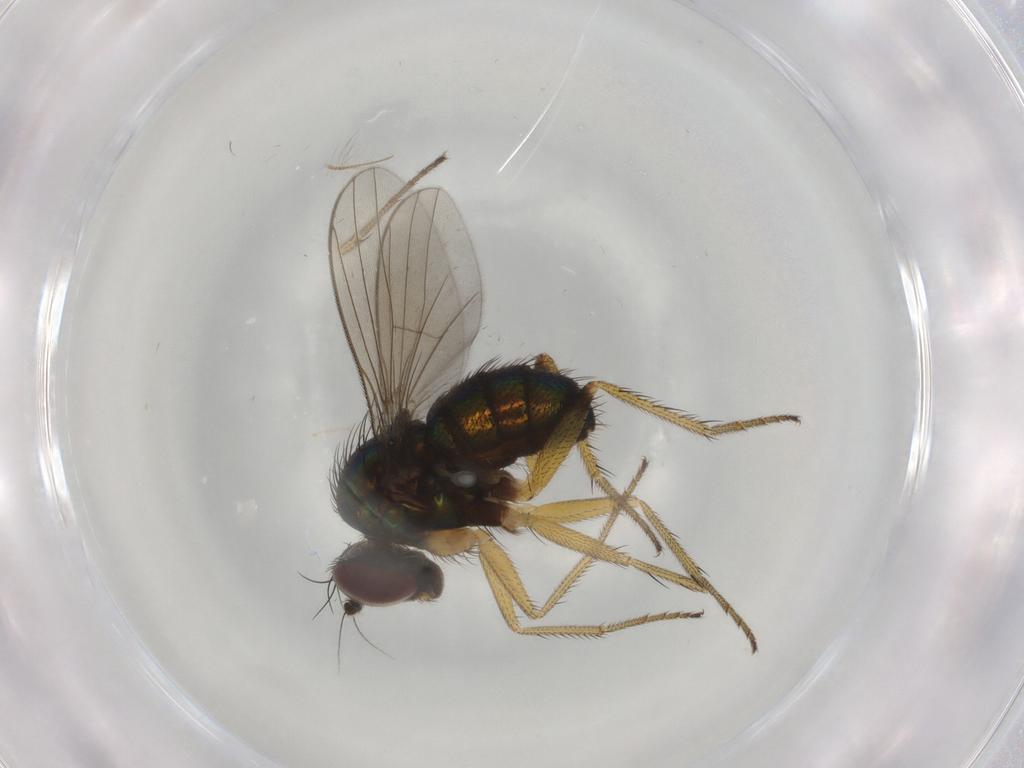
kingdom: Animalia
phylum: Arthropoda
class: Insecta
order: Diptera
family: Dolichopodidae
